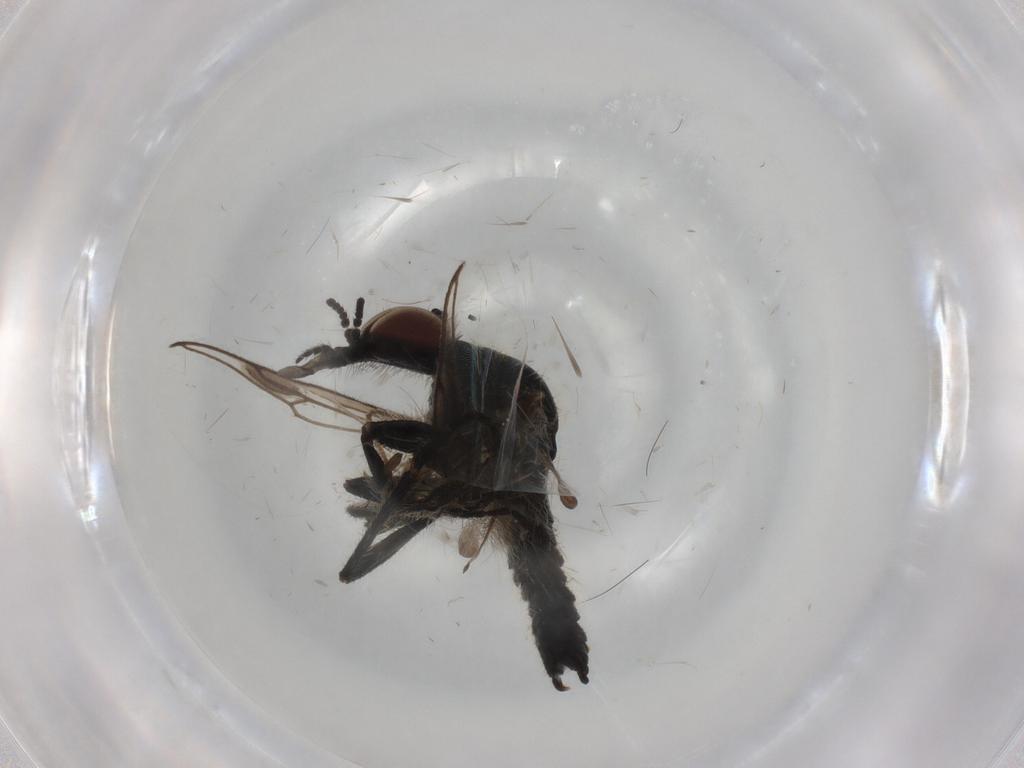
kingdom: Animalia
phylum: Arthropoda
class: Insecta
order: Diptera
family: Bibionidae
